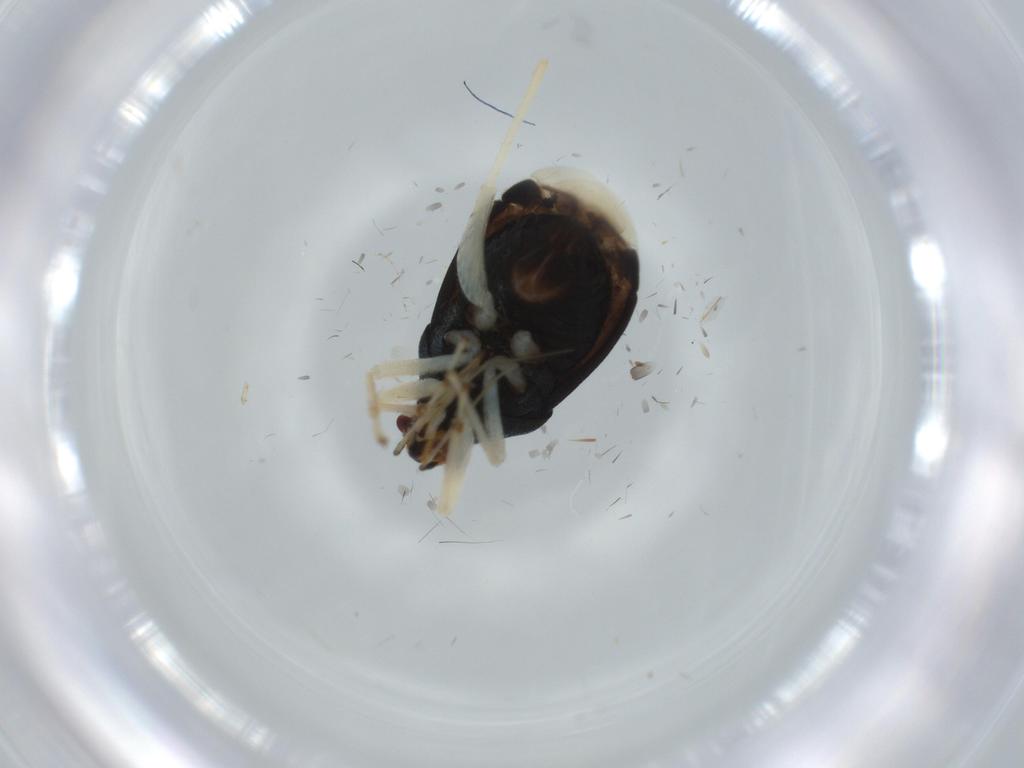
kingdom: Animalia
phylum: Arthropoda
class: Insecta
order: Hemiptera
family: Miridae
